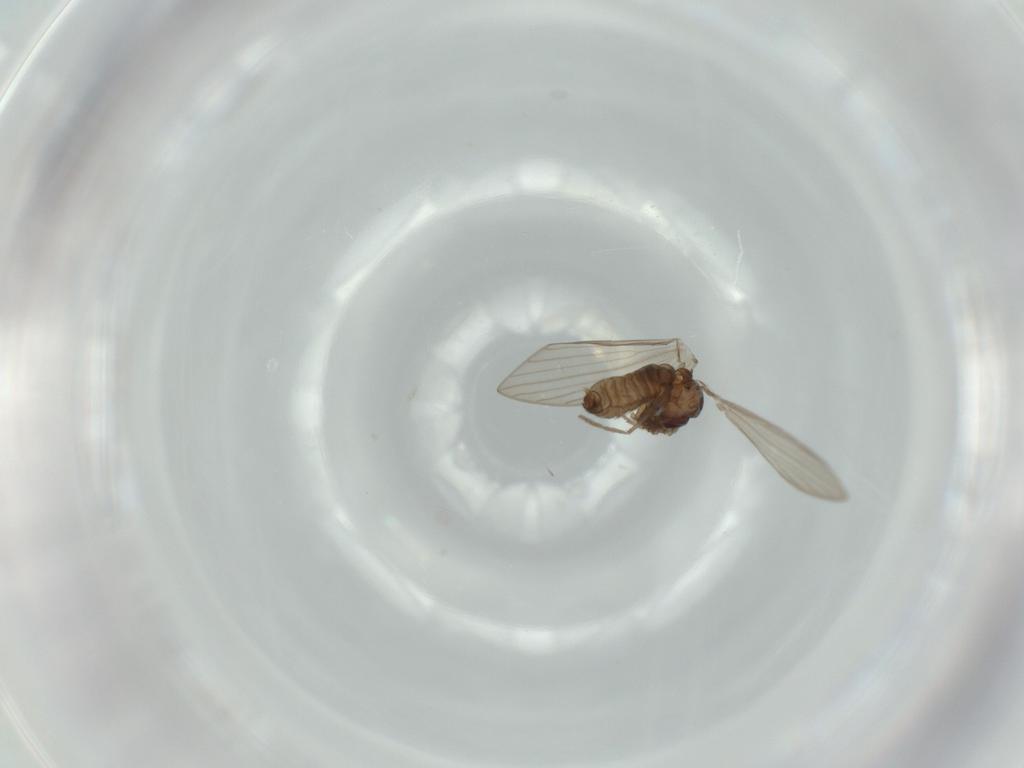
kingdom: Animalia
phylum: Arthropoda
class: Insecta
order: Diptera
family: Psychodidae
